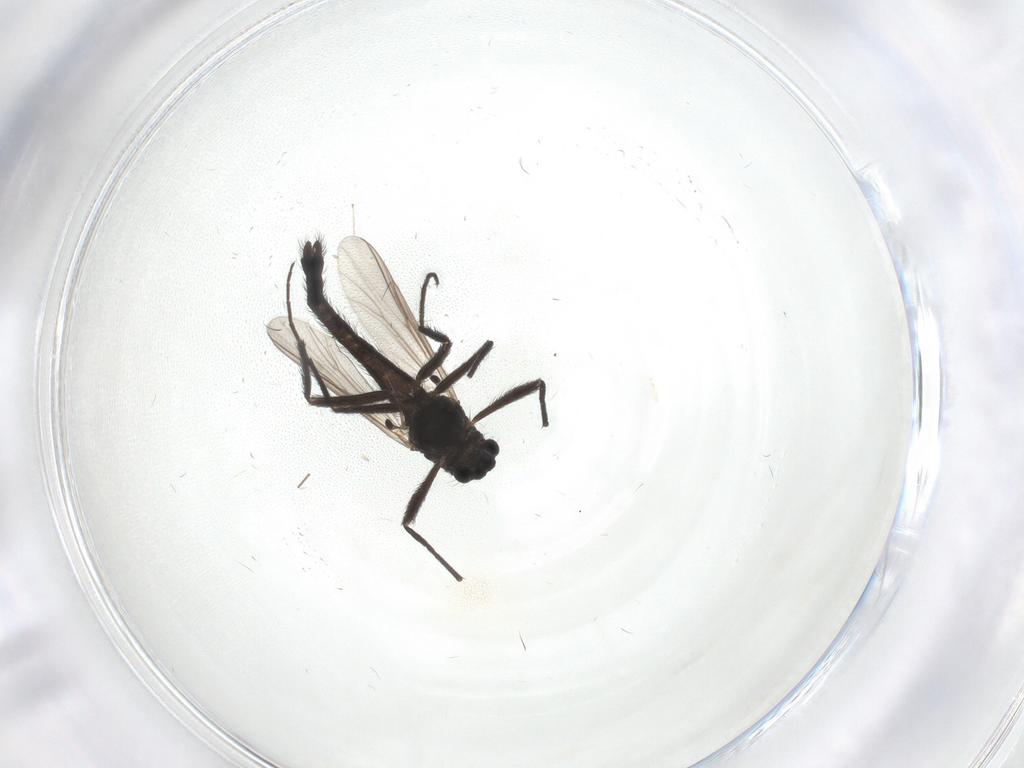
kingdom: Animalia
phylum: Arthropoda
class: Insecta
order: Diptera
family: Chironomidae
